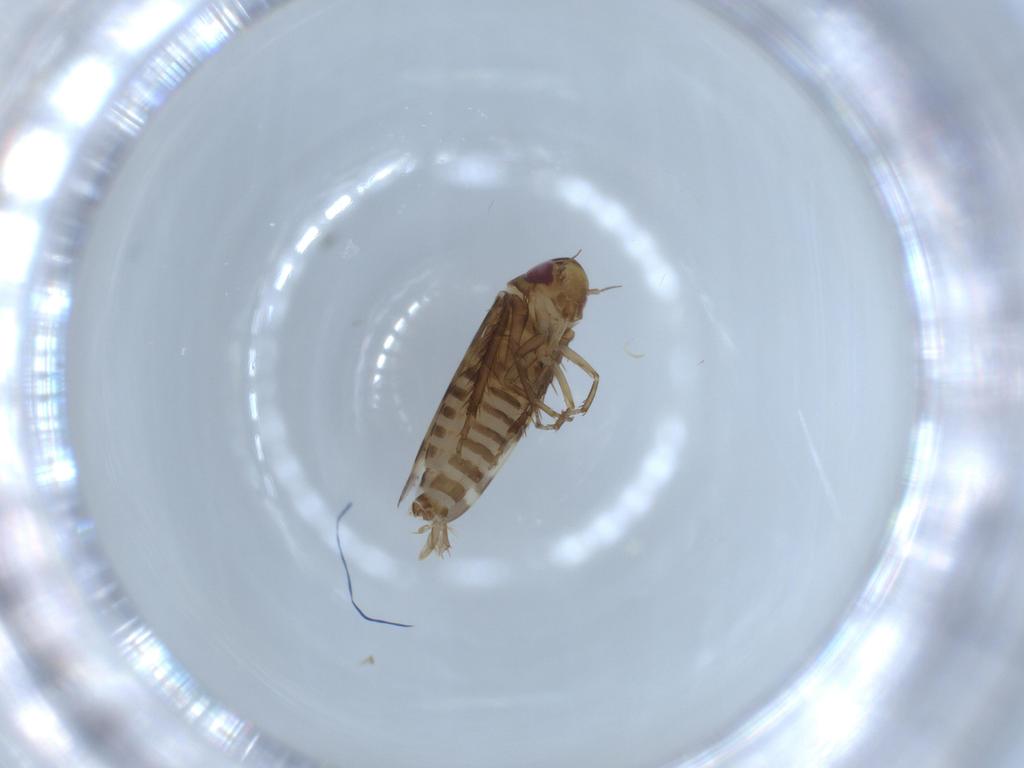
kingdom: Animalia
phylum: Arthropoda
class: Insecta
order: Hemiptera
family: Cicadellidae
